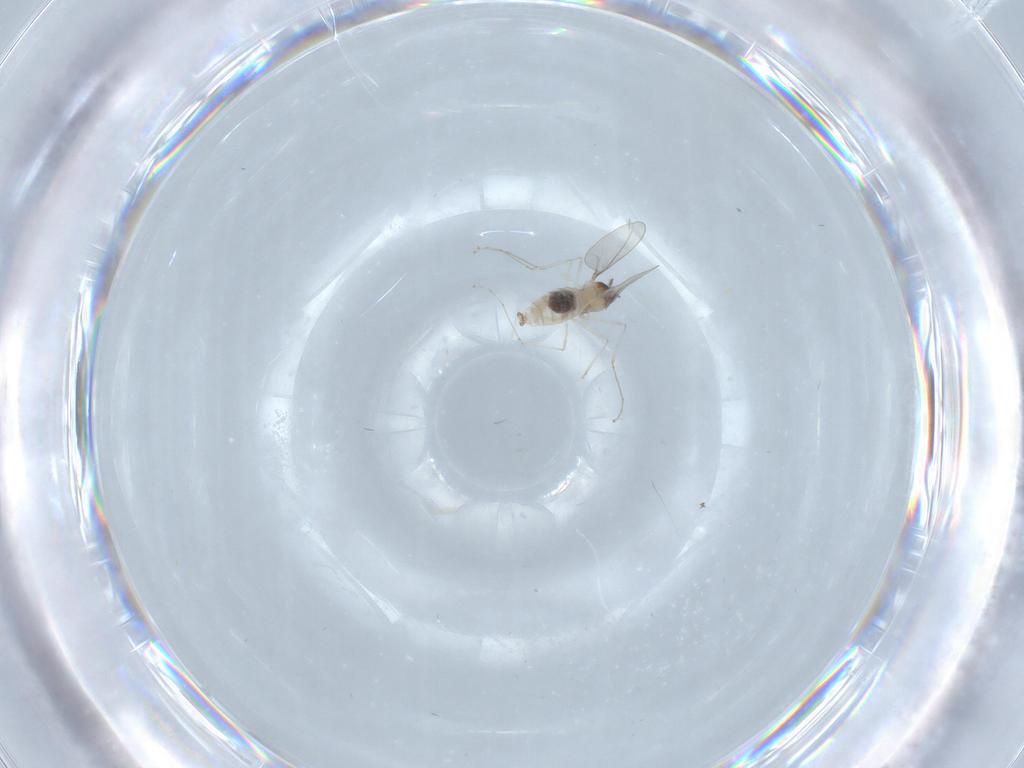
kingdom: Animalia
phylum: Arthropoda
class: Insecta
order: Diptera
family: Cecidomyiidae
